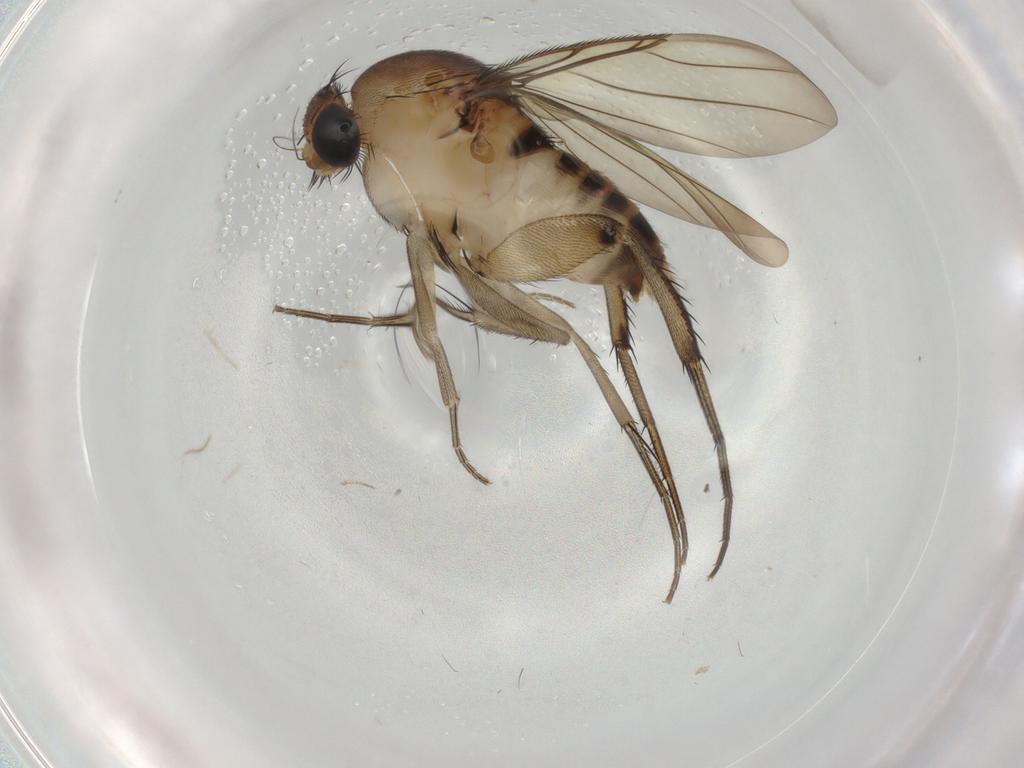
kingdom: Animalia
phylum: Arthropoda
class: Insecta
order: Diptera
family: Phoridae
